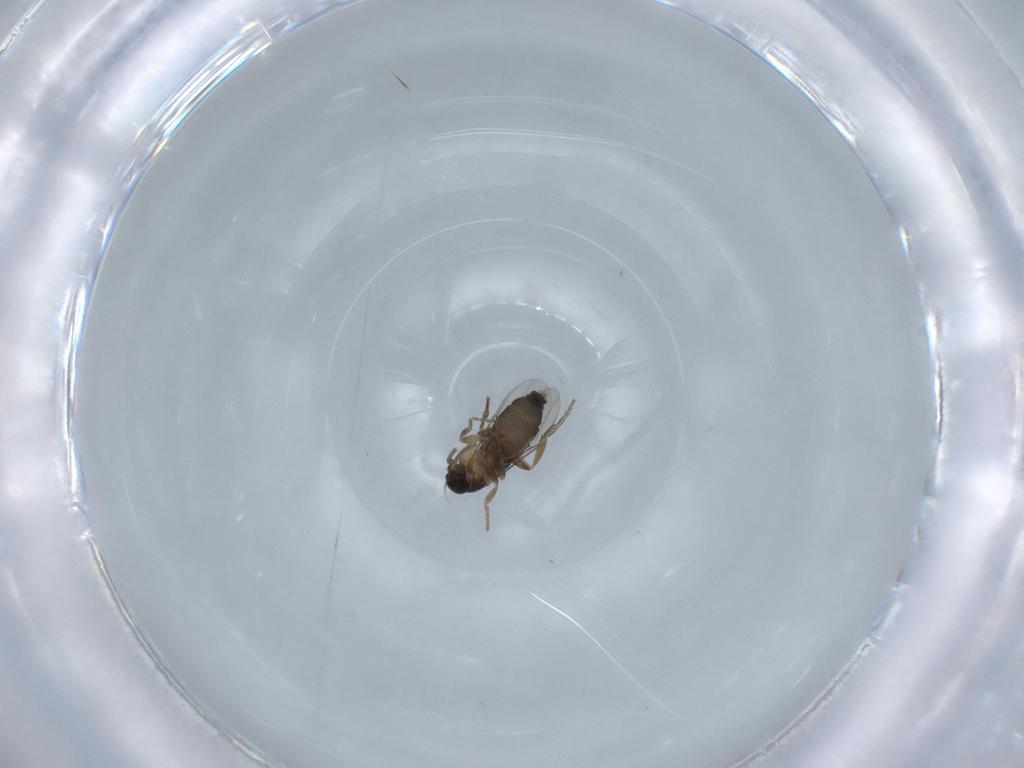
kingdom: Animalia
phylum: Arthropoda
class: Insecta
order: Diptera
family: Phoridae
